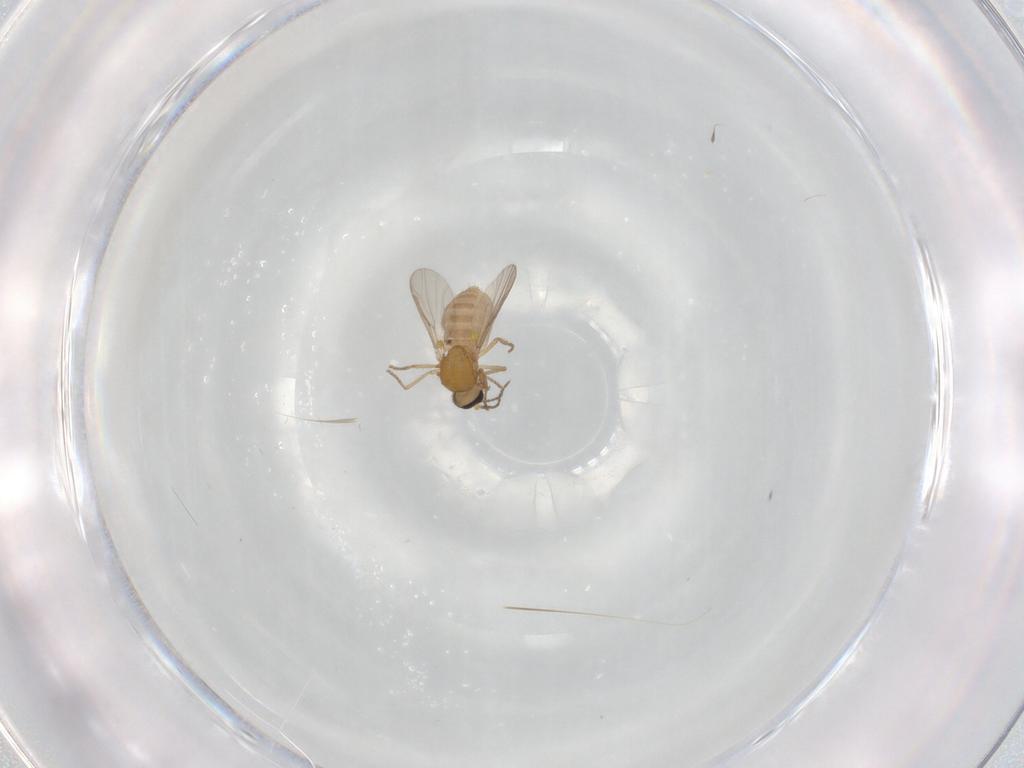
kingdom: Animalia
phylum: Arthropoda
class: Insecta
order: Diptera
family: Ceratopogonidae
